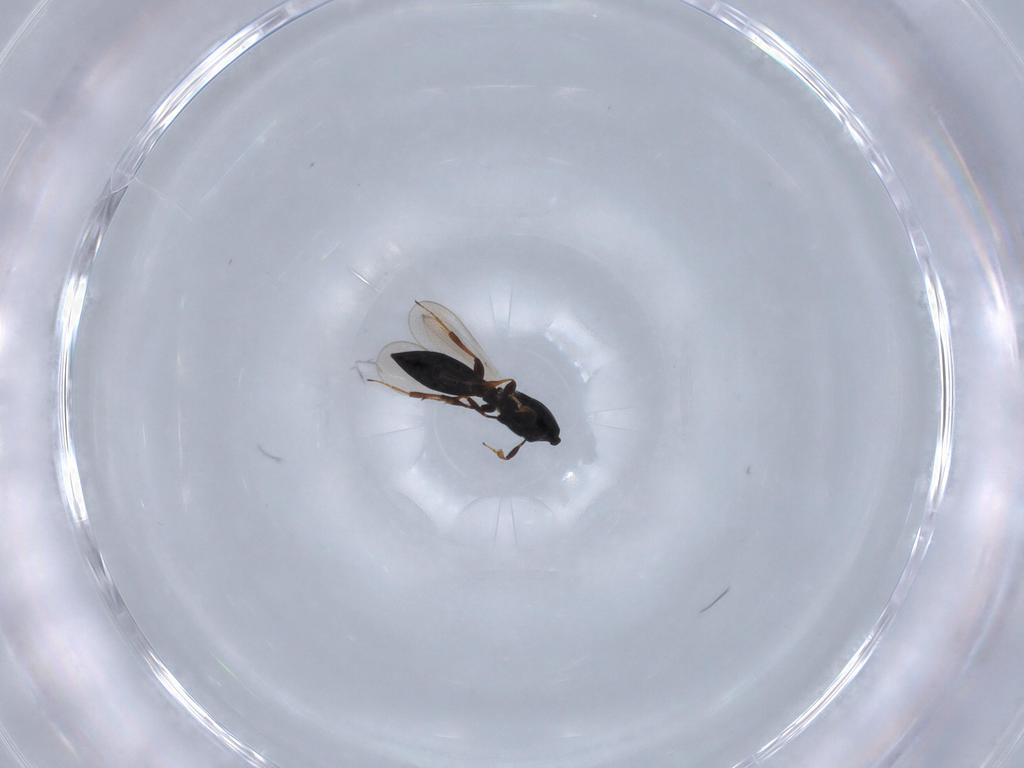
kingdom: Animalia
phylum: Arthropoda
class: Insecta
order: Hymenoptera
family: Platygastridae
